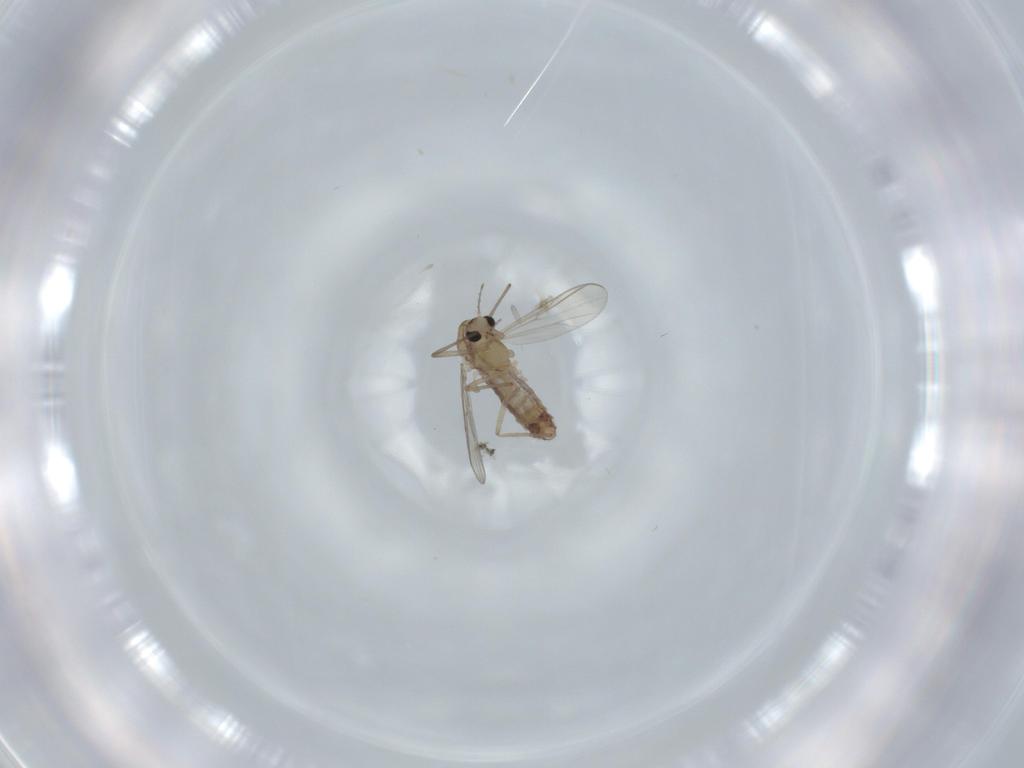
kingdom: Animalia
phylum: Arthropoda
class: Insecta
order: Diptera
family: Chironomidae
